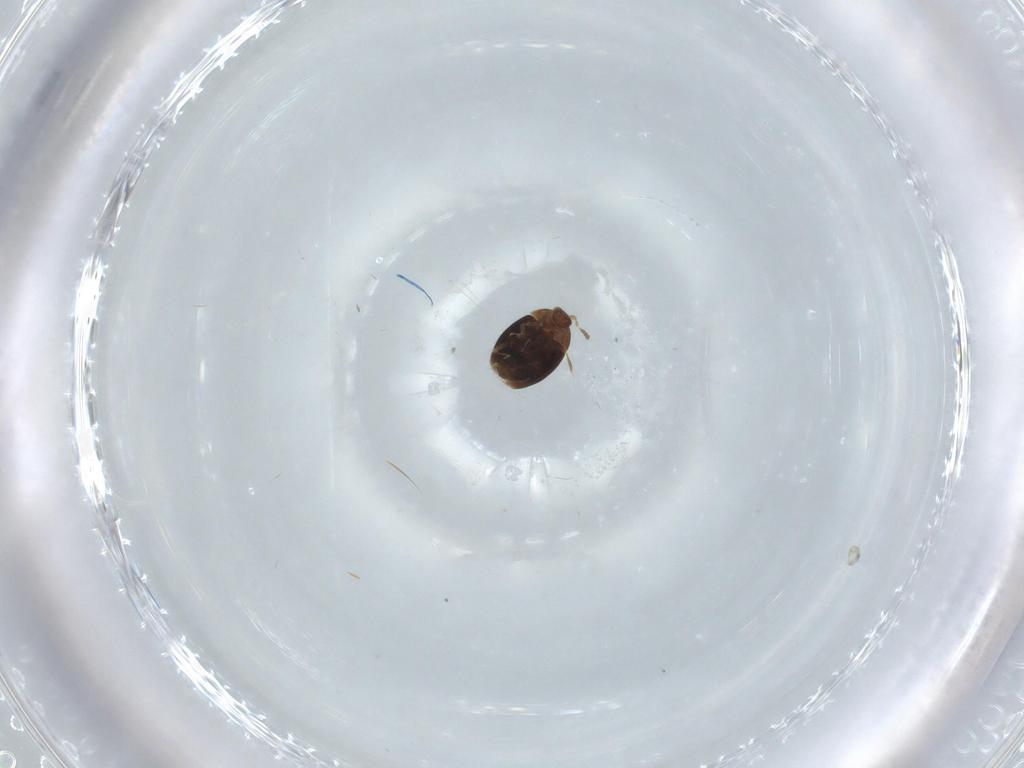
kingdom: Animalia
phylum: Arthropoda
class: Insecta
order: Coleoptera
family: Corylophidae
